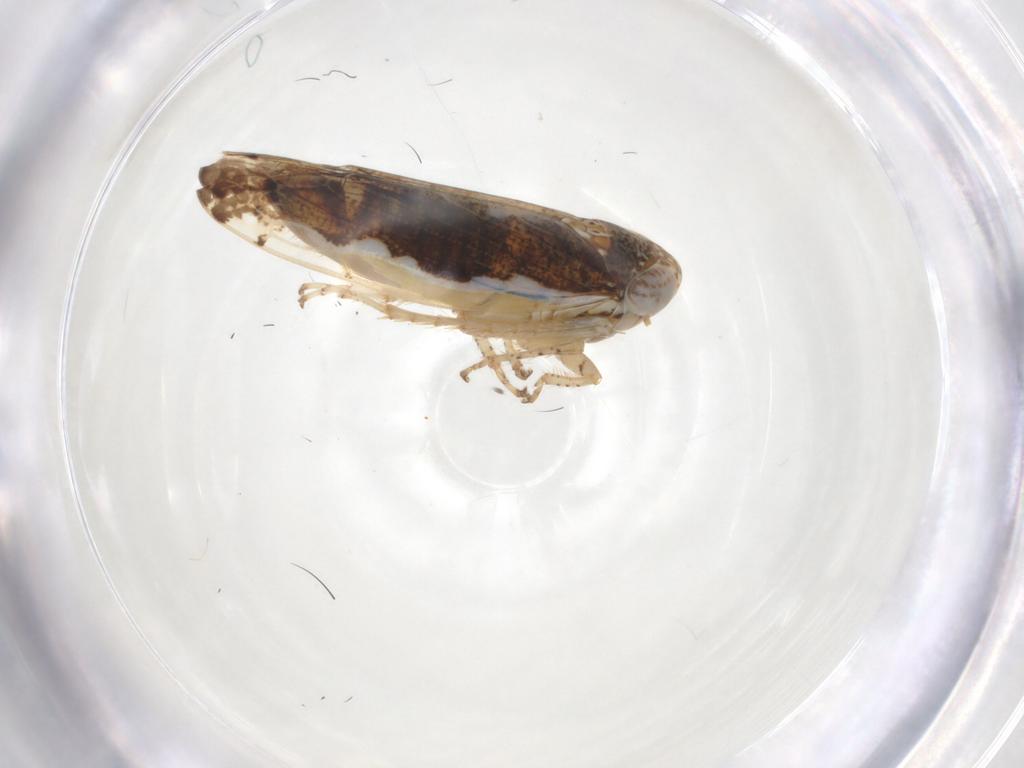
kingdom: Animalia
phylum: Arthropoda
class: Insecta
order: Hemiptera
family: Cicadellidae
